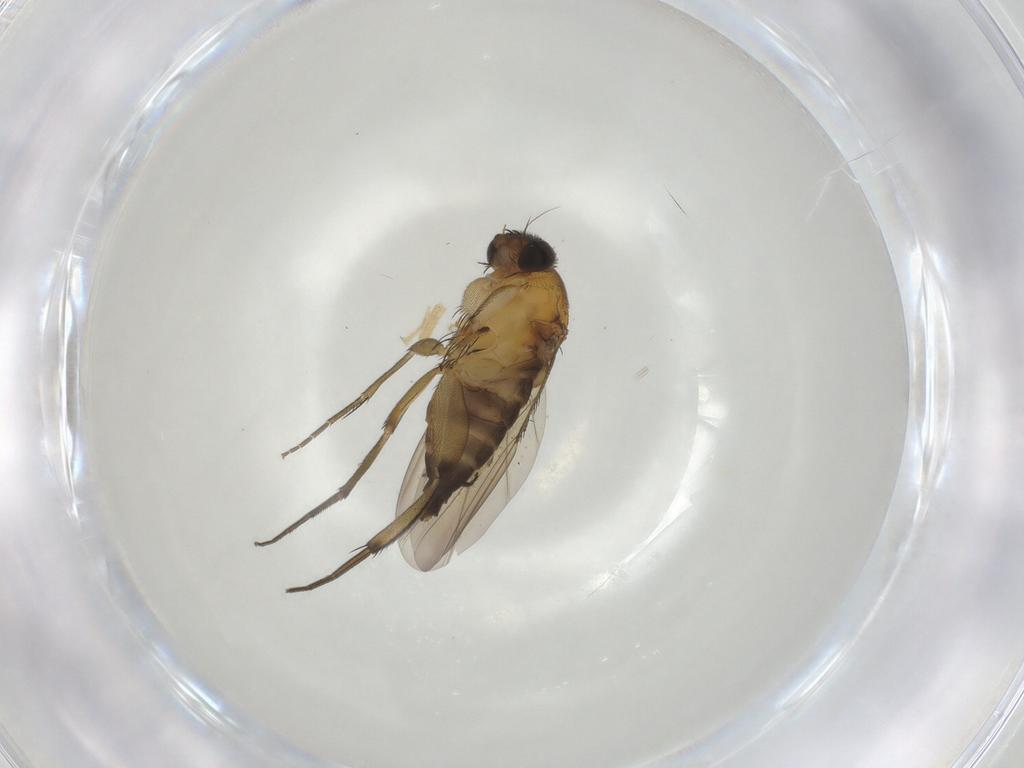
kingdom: Animalia
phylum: Arthropoda
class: Insecta
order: Diptera
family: Phoridae
